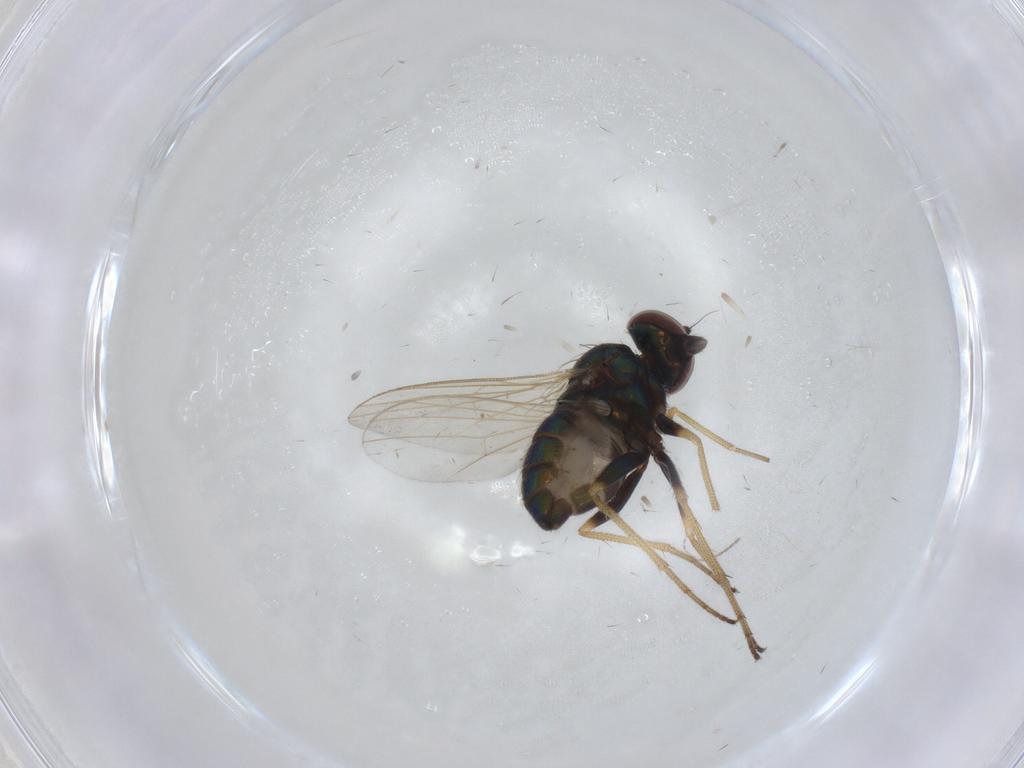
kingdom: Animalia
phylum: Arthropoda
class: Insecta
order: Diptera
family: Dolichopodidae
